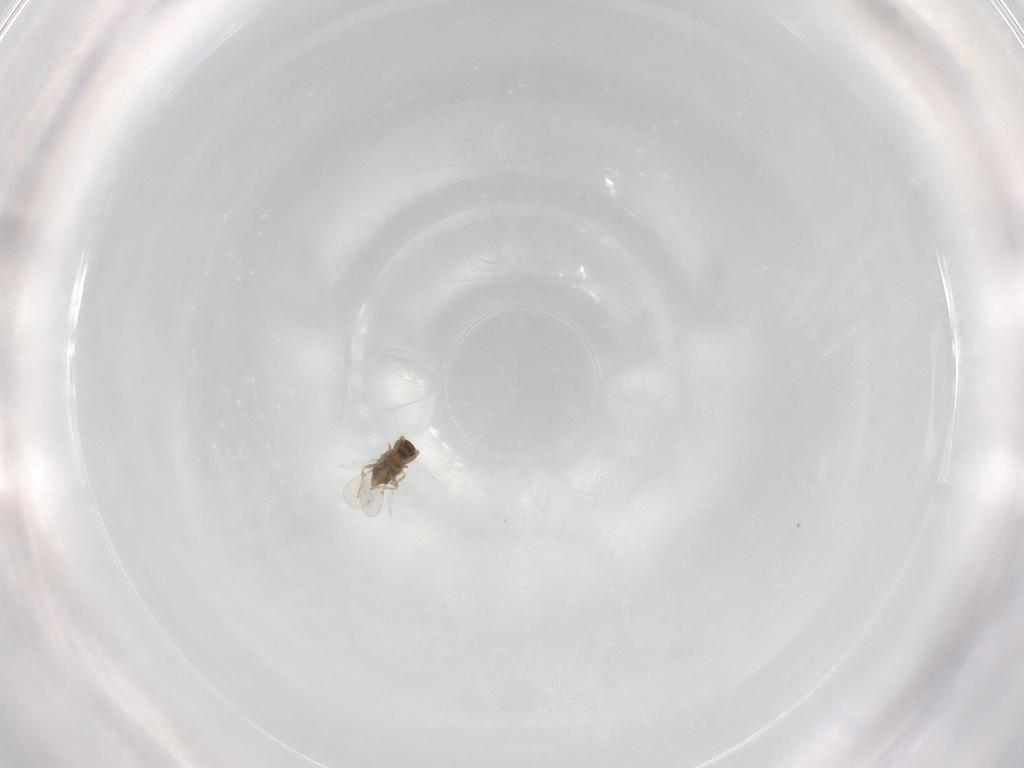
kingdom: Animalia
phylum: Arthropoda
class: Insecta
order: Hymenoptera
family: Encyrtidae
